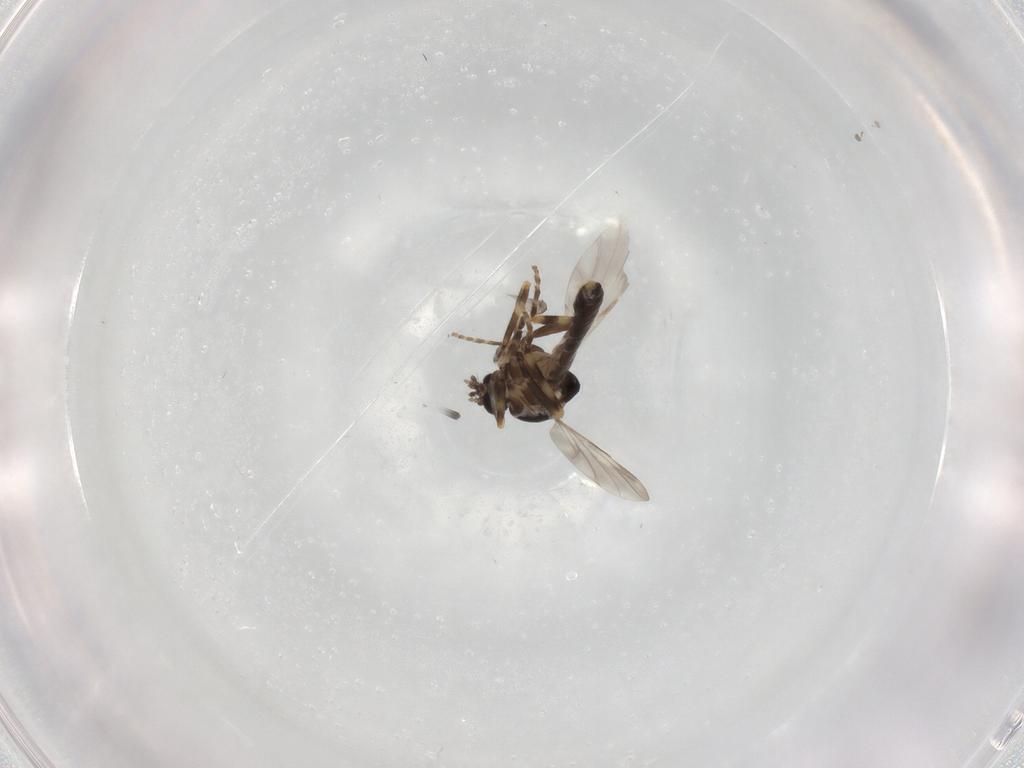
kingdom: Animalia
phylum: Arthropoda
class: Insecta
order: Diptera
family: Ceratopogonidae
